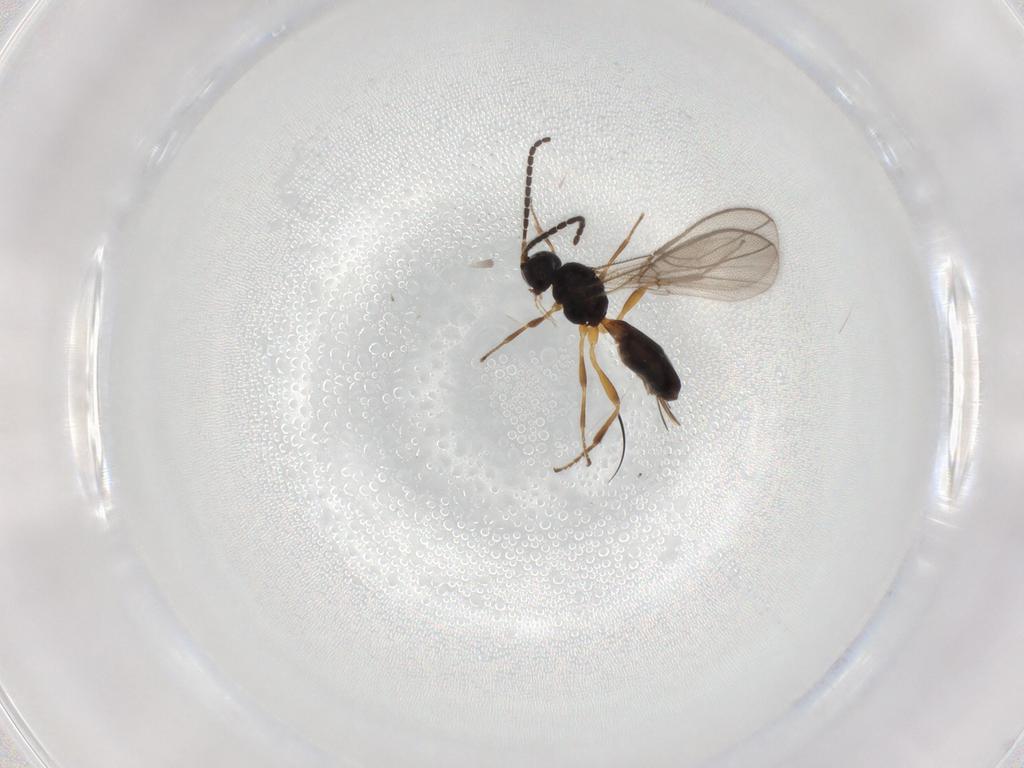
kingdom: Animalia
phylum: Arthropoda
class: Insecta
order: Hymenoptera
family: Braconidae
